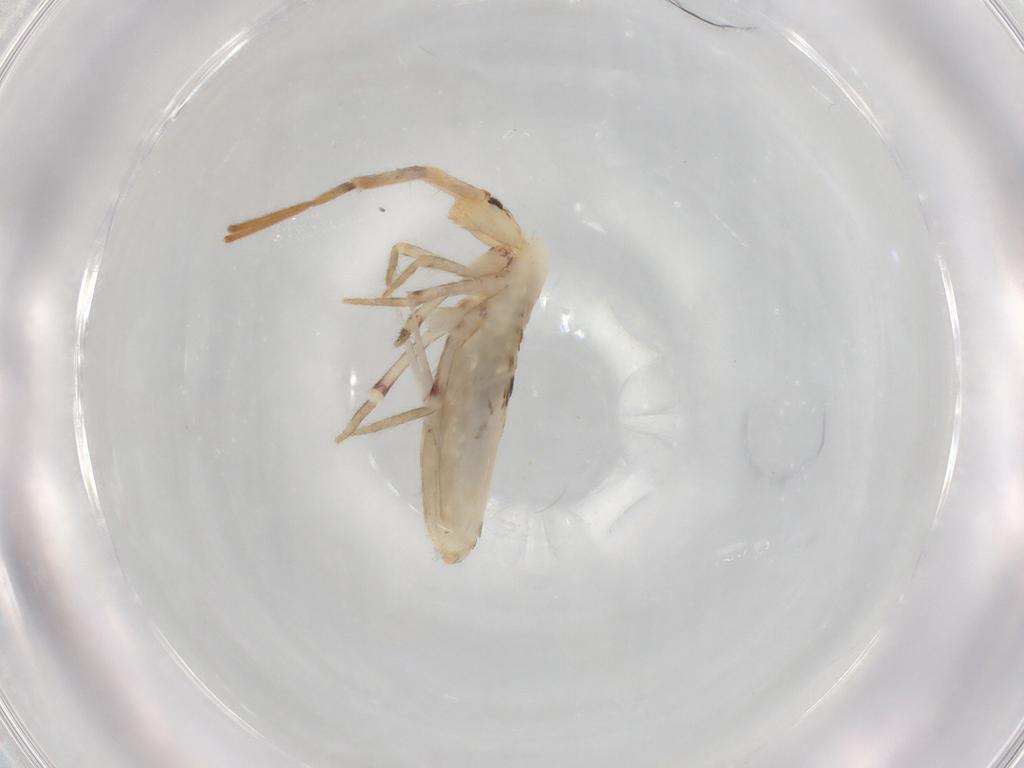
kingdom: Animalia
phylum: Arthropoda
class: Collembola
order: Poduromorpha
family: Hypogastruridae
